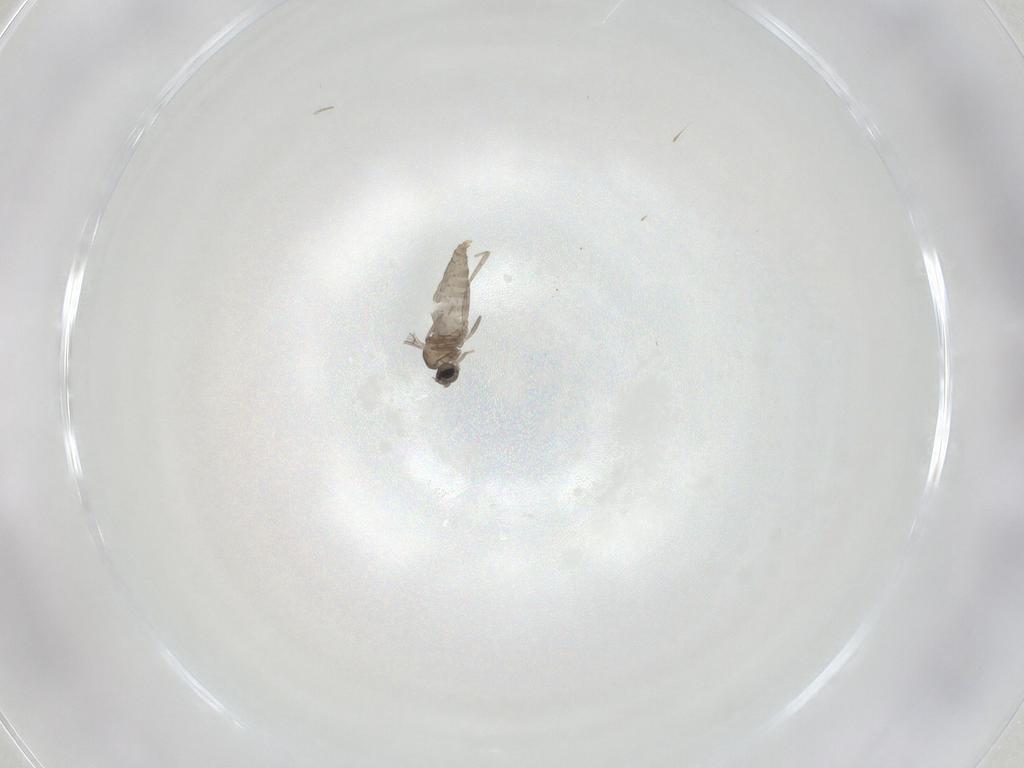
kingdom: Animalia
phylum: Arthropoda
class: Insecta
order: Diptera
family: Cecidomyiidae
